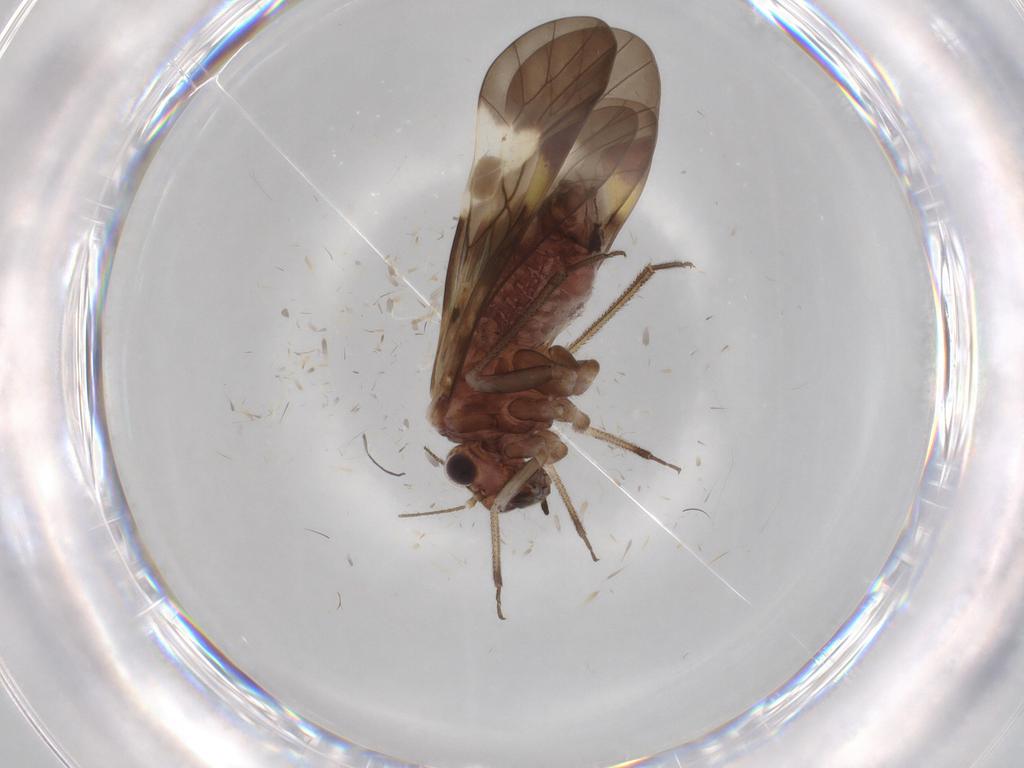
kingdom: Animalia
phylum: Arthropoda
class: Insecta
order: Psocodea
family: Psocidae
